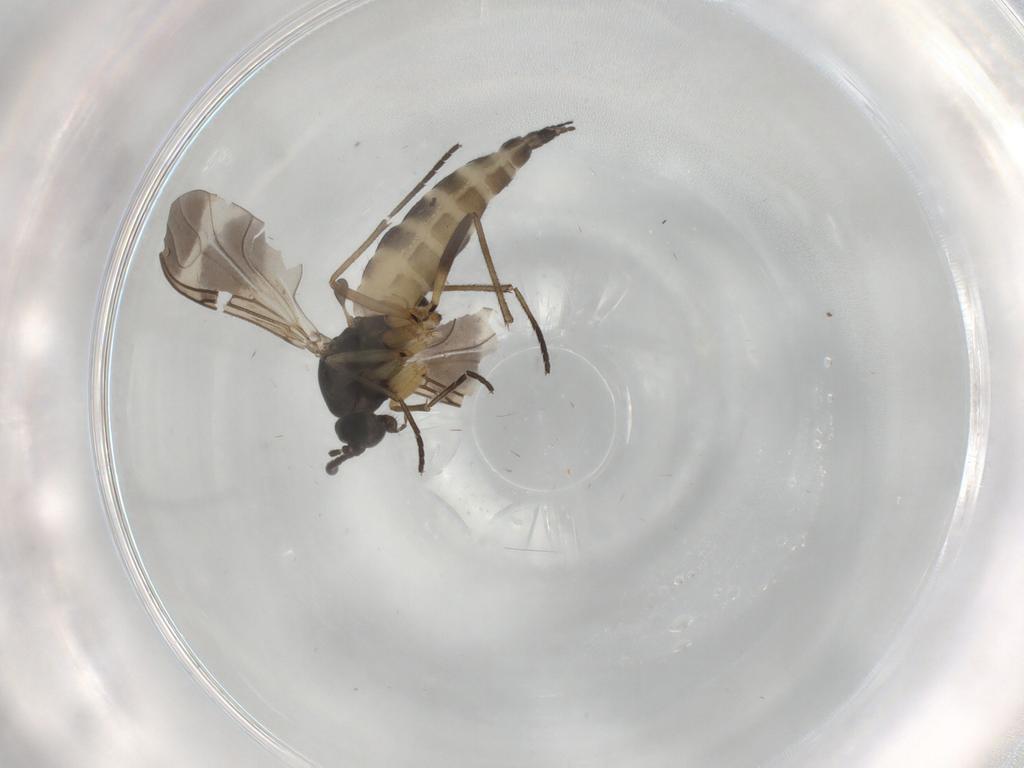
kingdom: Animalia
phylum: Arthropoda
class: Insecta
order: Diptera
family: Sciaridae
